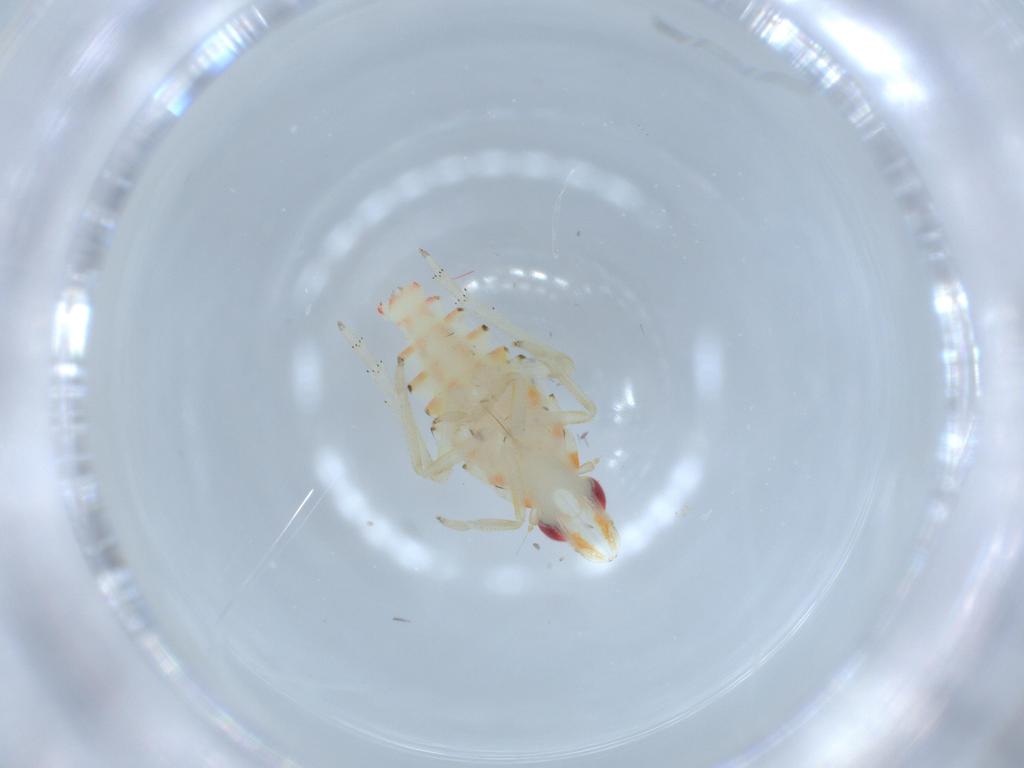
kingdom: Animalia
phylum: Arthropoda
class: Insecta
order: Hemiptera
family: Tropiduchidae
